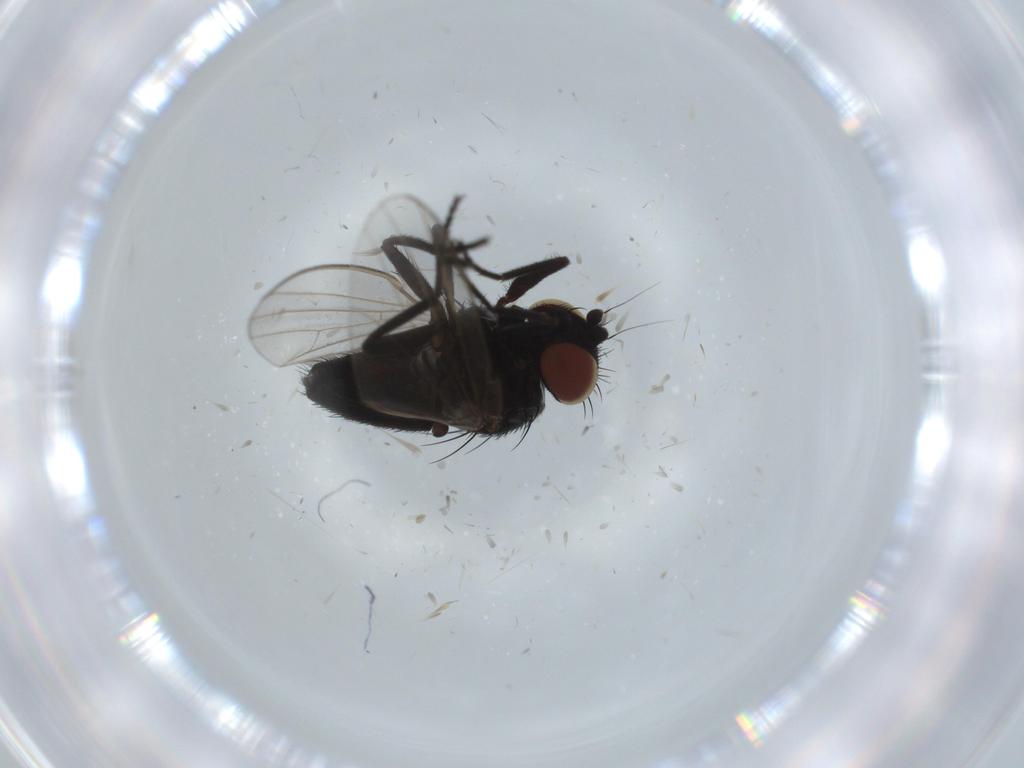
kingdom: Animalia
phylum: Arthropoda
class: Insecta
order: Diptera
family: Milichiidae
